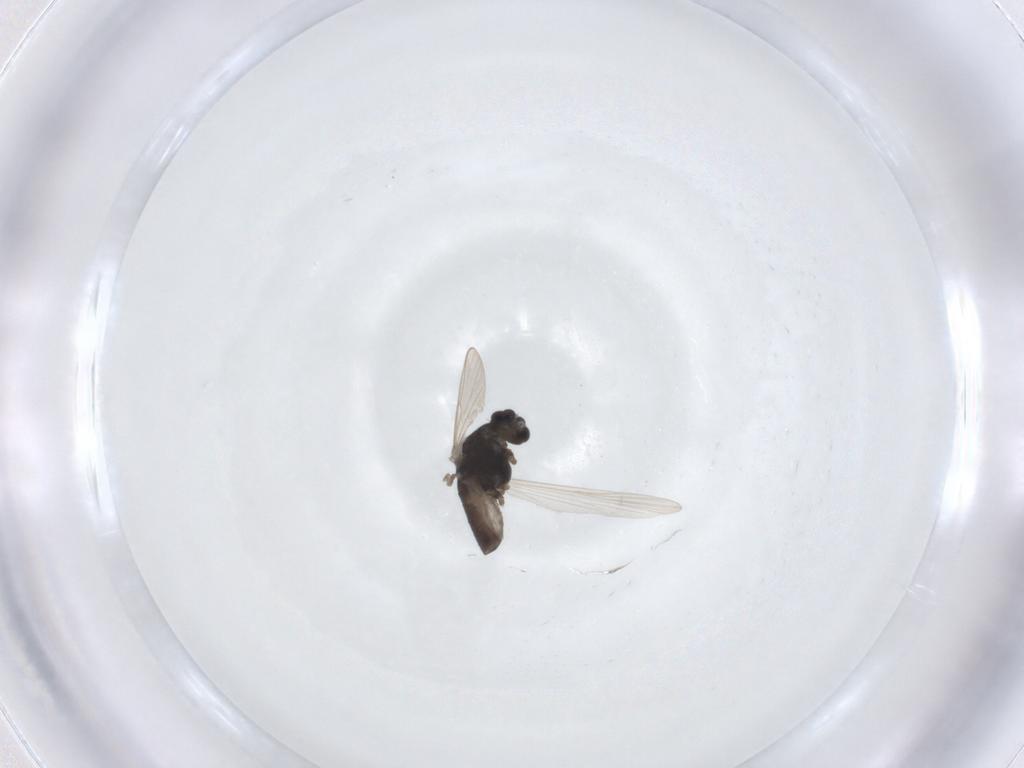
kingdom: Animalia
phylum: Arthropoda
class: Insecta
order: Diptera
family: Chironomidae
